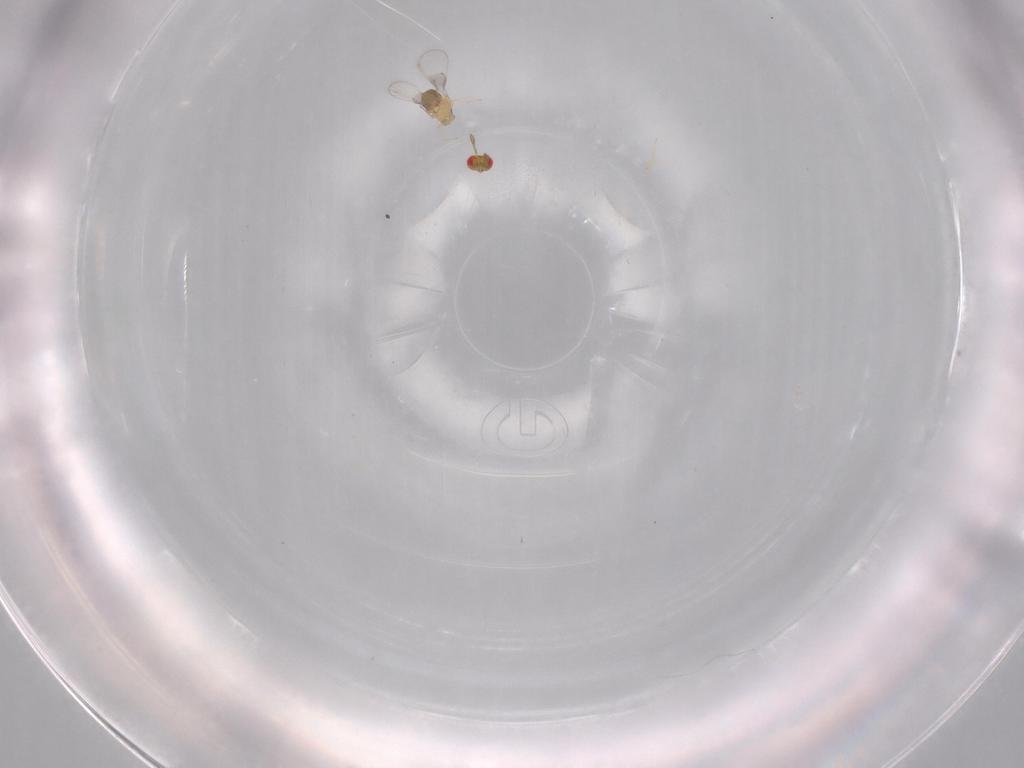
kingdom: Animalia
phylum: Arthropoda
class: Insecta
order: Hymenoptera
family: Trichogrammatidae
